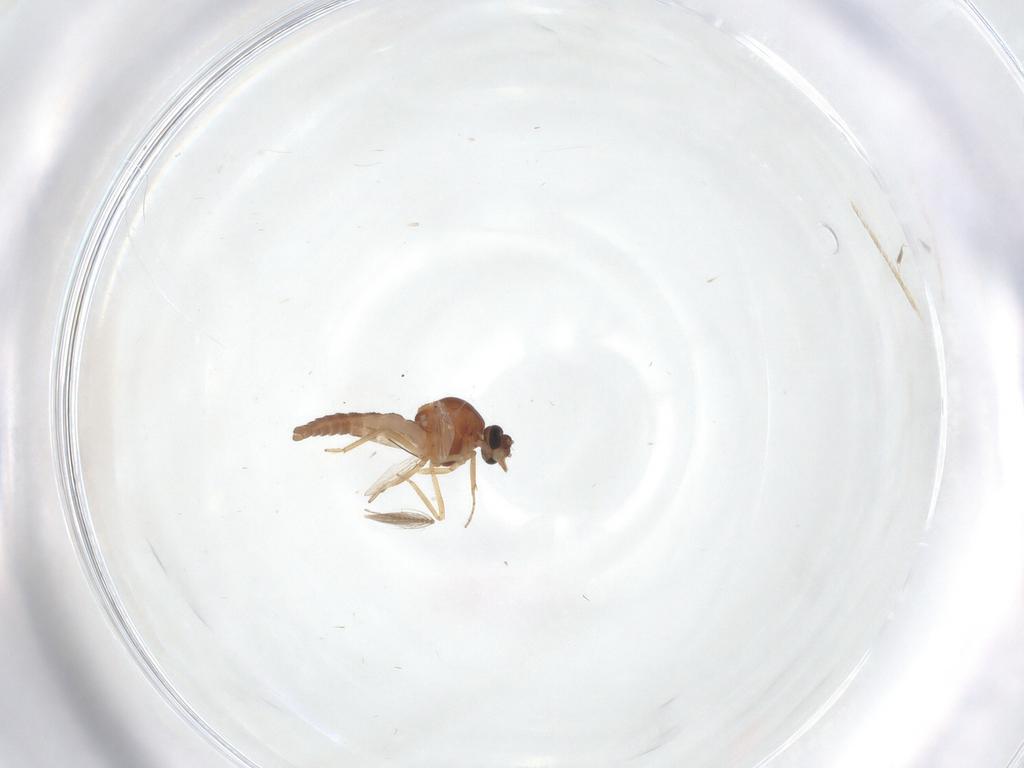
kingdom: Animalia
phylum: Arthropoda
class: Insecta
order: Diptera
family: Ceratopogonidae
